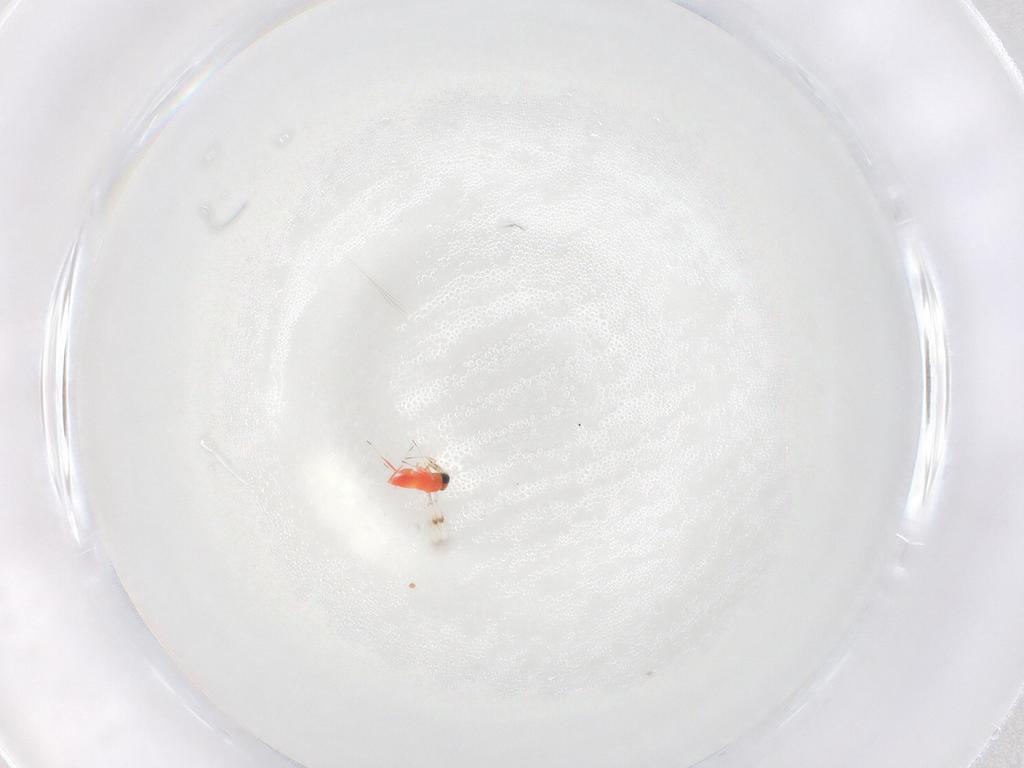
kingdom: Animalia
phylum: Arthropoda
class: Insecta
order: Hymenoptera
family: Trichogrammatidae
